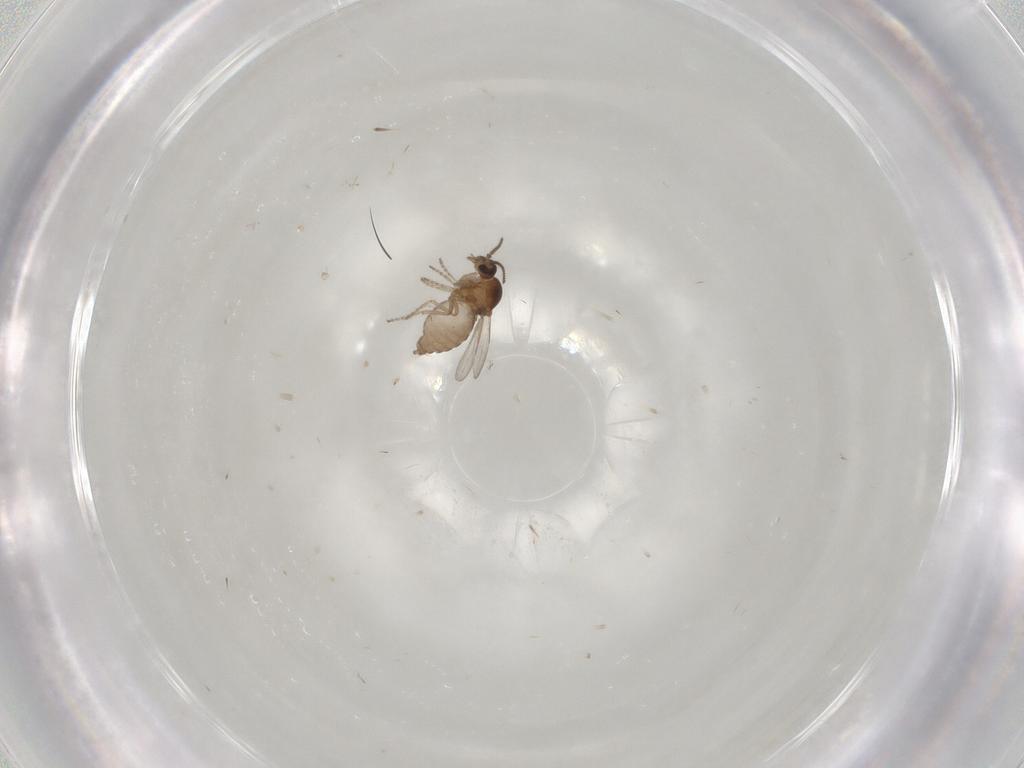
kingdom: Animalia
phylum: Arthropoda
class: Insecta
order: Diptera
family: Ceratopogonidae
